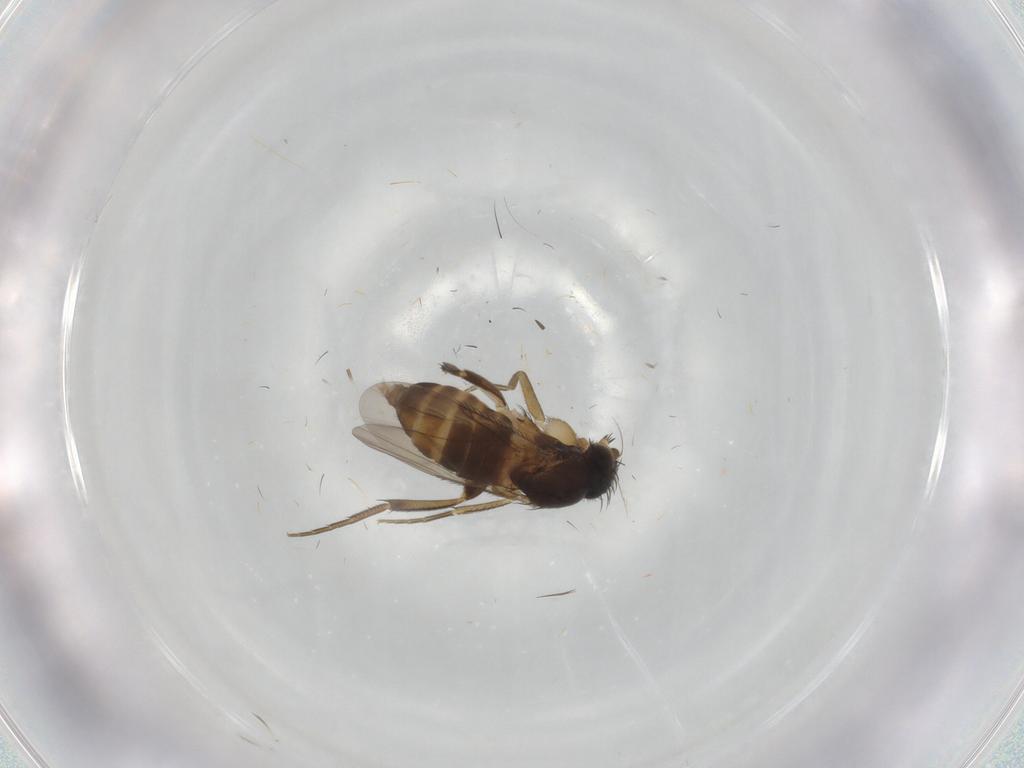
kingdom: Animalia
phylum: Arthropoda
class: Insecta
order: Diptera
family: Phoridae
